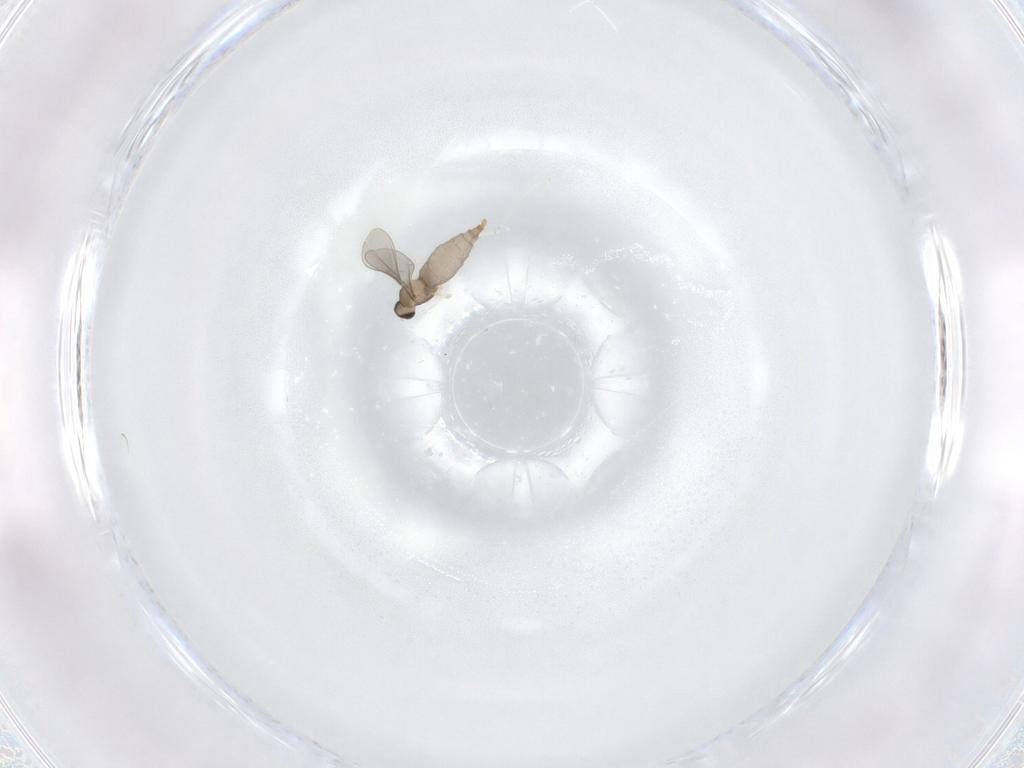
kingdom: Animalia
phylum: Arthropoda
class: Insecta
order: Diptera
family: Cecidomyiidae
